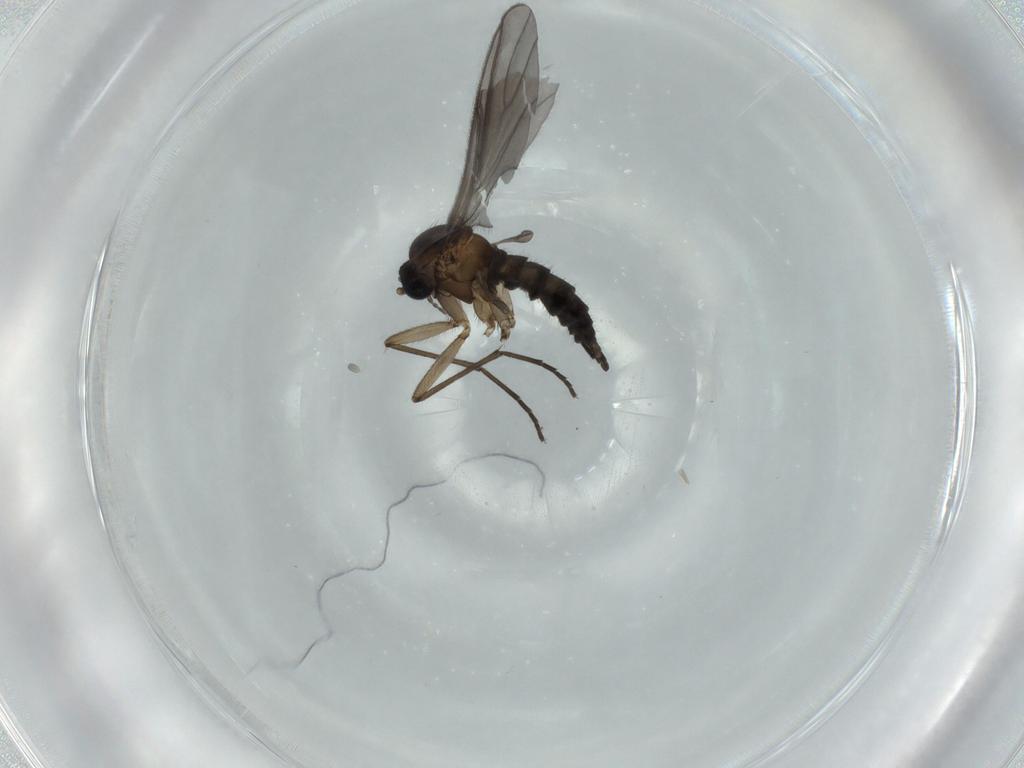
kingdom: Animalia
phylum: Arthropoda
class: Insecta
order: Diptera
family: Sciaridae
